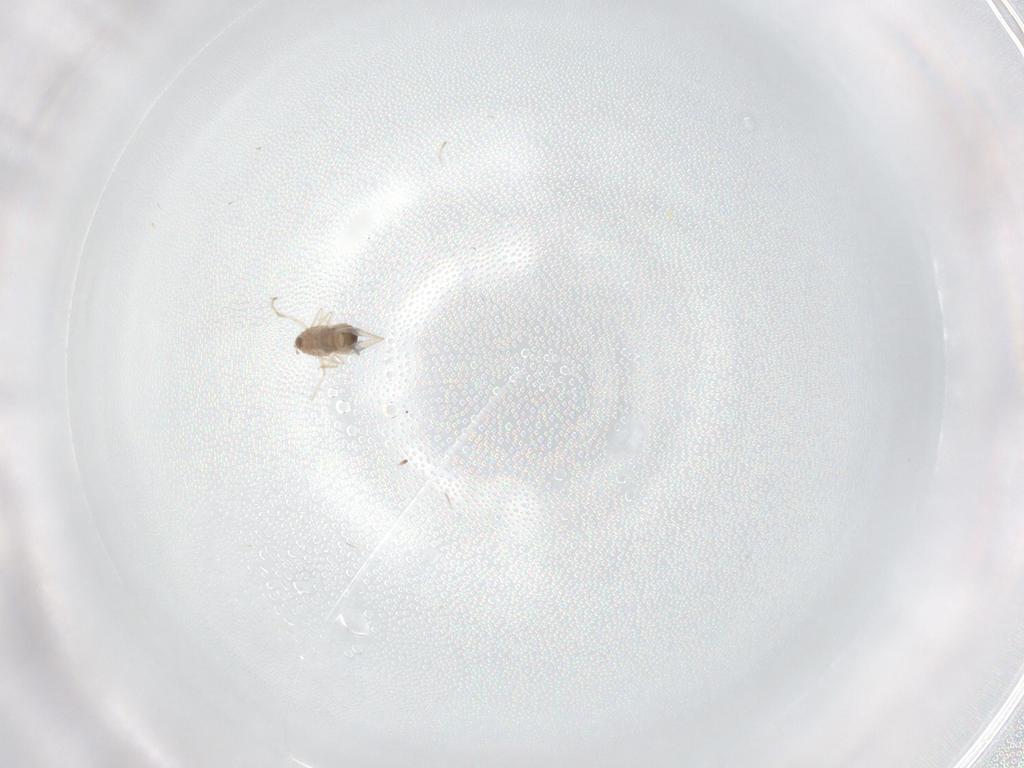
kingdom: Animalia
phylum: Arthropoda
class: Insecta
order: Diptera
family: Cecidomyiidae
